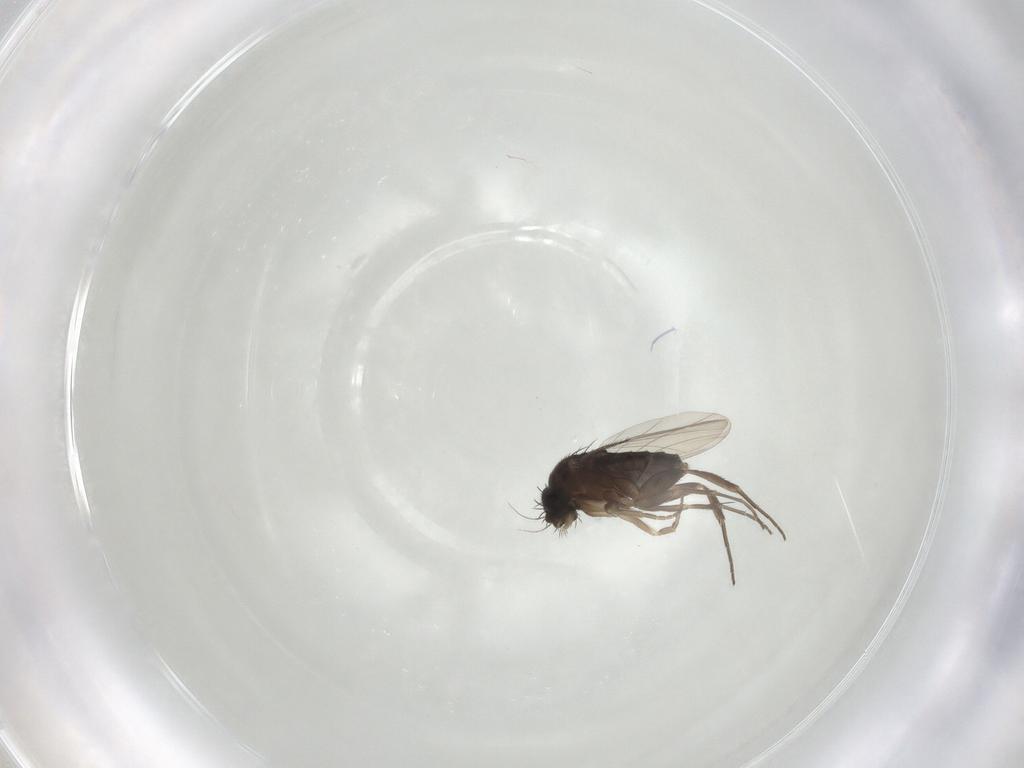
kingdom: Animalia
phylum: Arthropoda
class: Insecta
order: Diptera
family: Phoridae
